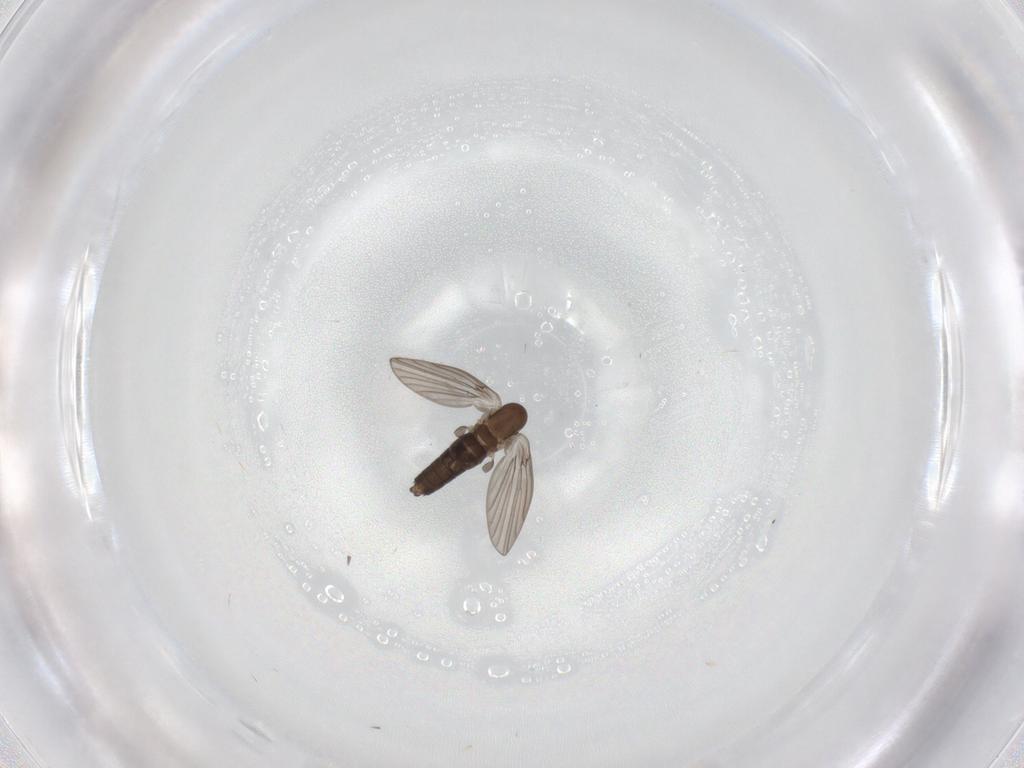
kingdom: Animalia
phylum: Arthropoda
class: Insecta
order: Diptera
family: Cecidomyiidae
